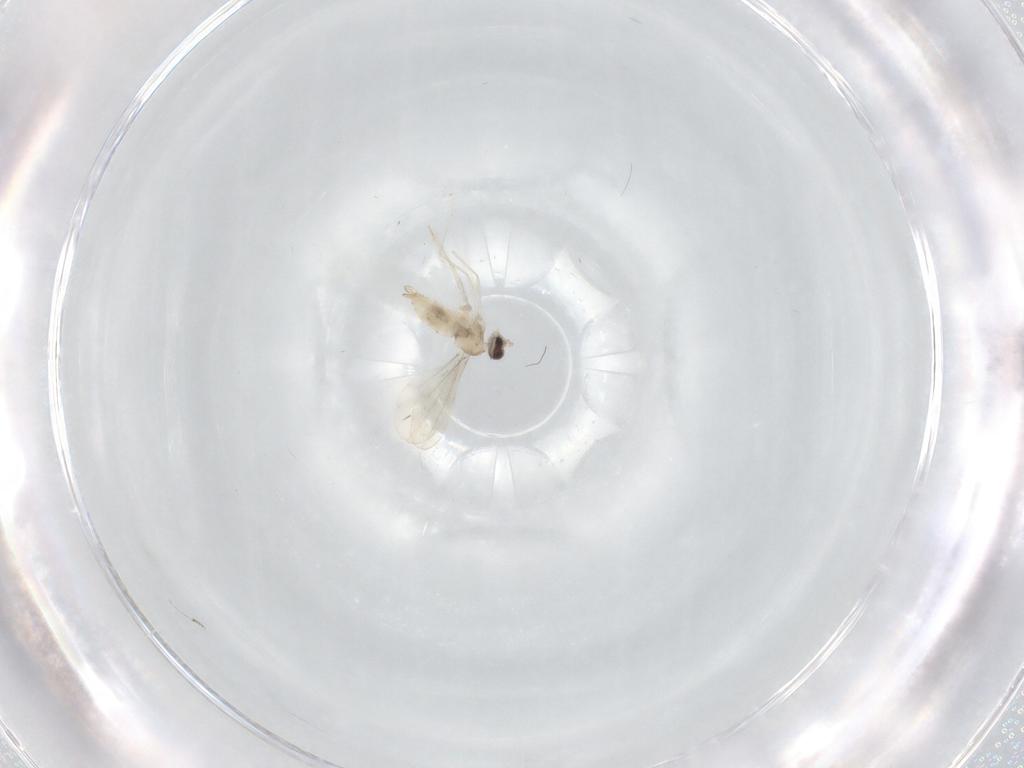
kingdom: Animalia
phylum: Arthropoda
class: Insecta
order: Diptera
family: Cecidomyiidae
